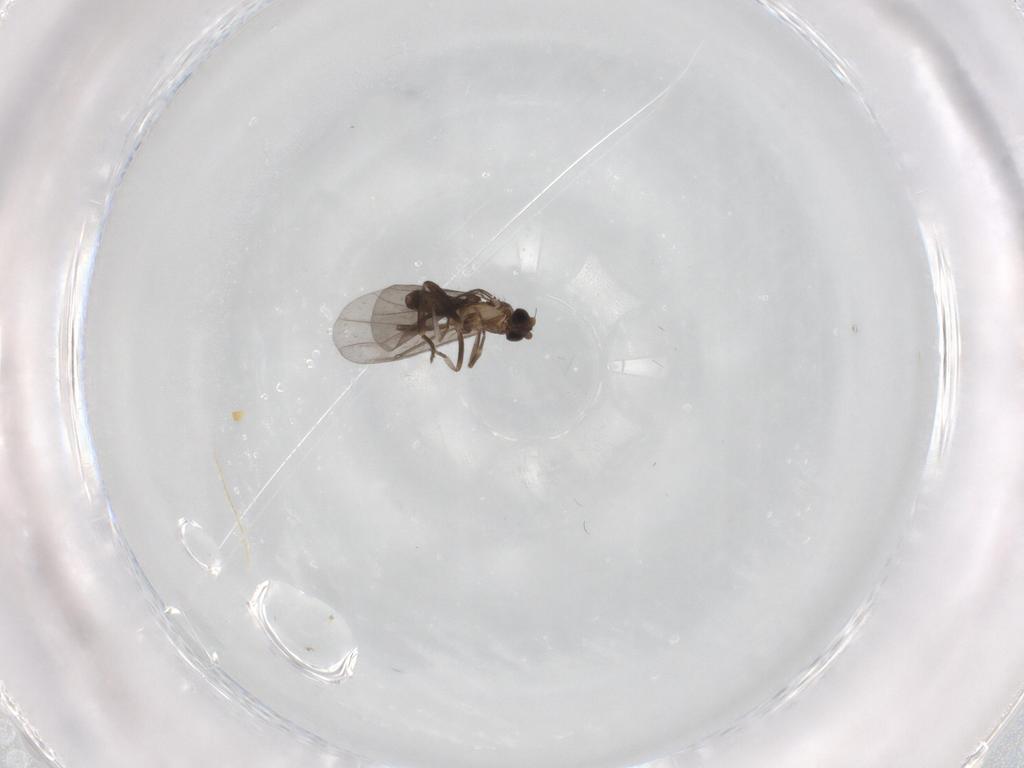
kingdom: Animalia
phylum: Arthropoda
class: Insecta
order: Diptera
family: Phoridae
